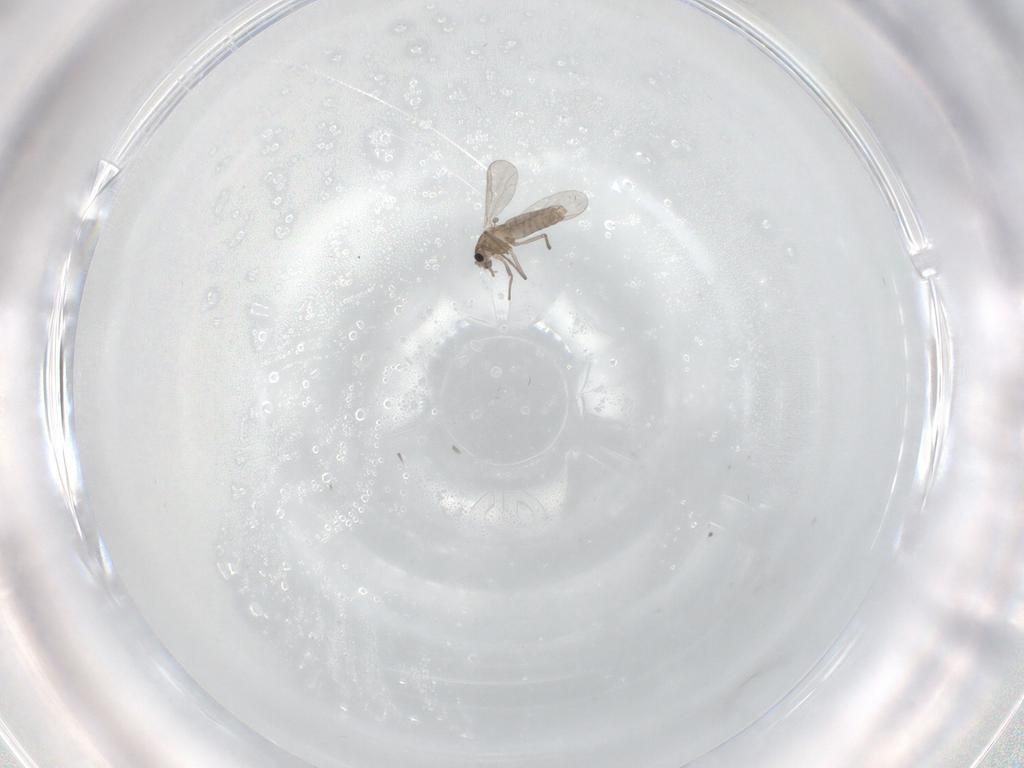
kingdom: Animalia
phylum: Arthropoda
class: Insecta
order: Diptera
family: Chironomidae
